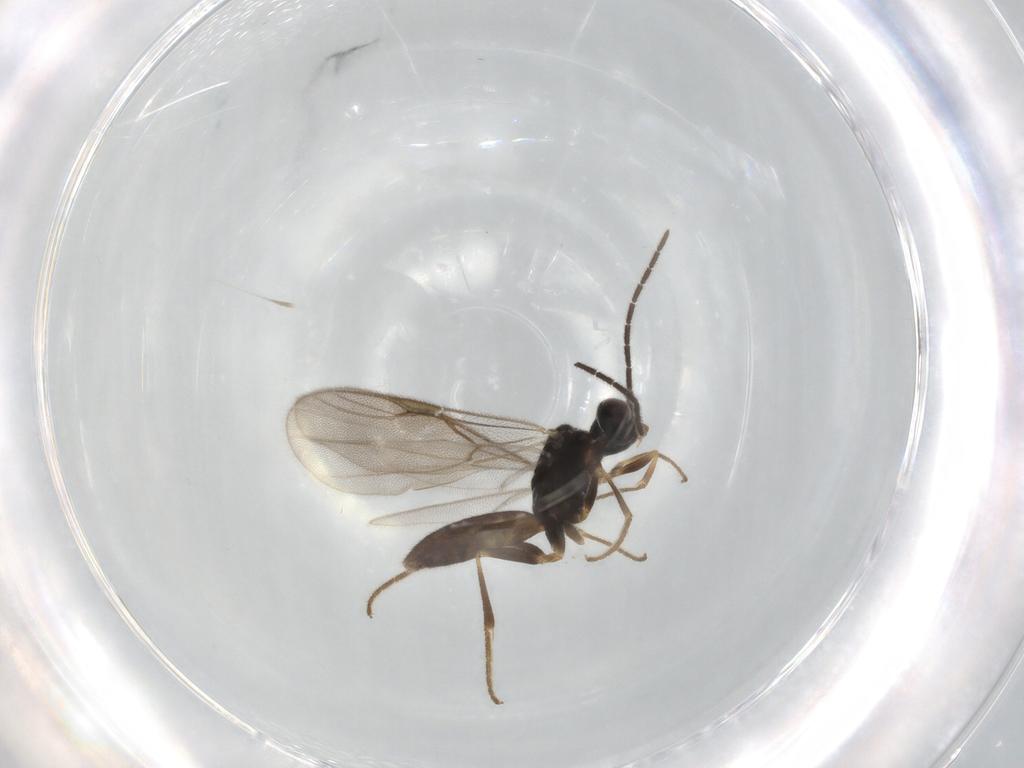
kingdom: Animalia
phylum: Arthropoda
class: Insecta
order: Hymenoptera
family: Dryinidae
